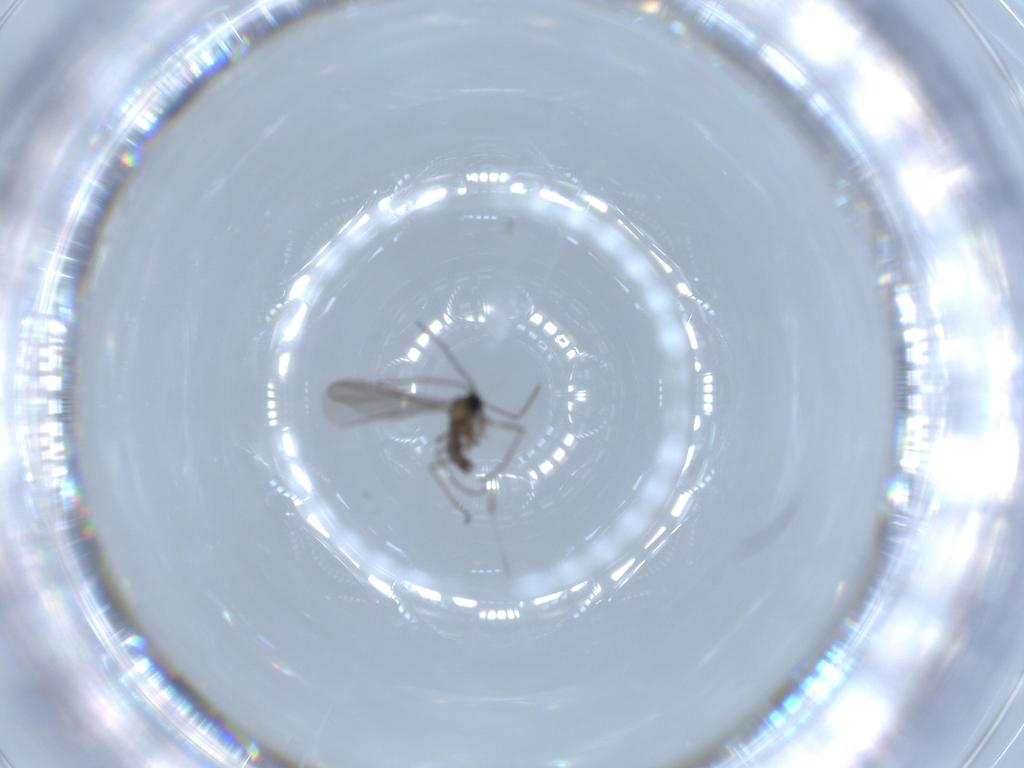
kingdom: Animalia
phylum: Arthropoda
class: Insecta
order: Diptera
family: Sciaridae
